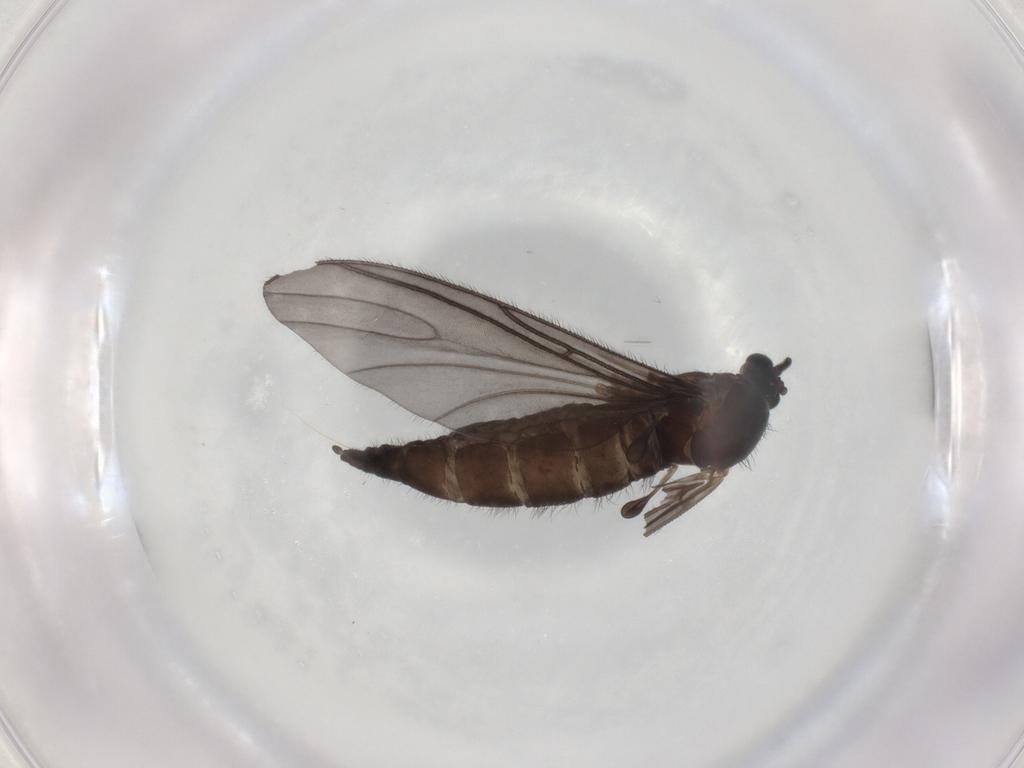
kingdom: Animalia
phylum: Arthropoda
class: Insecta
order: Diptera
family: Sciaridae
